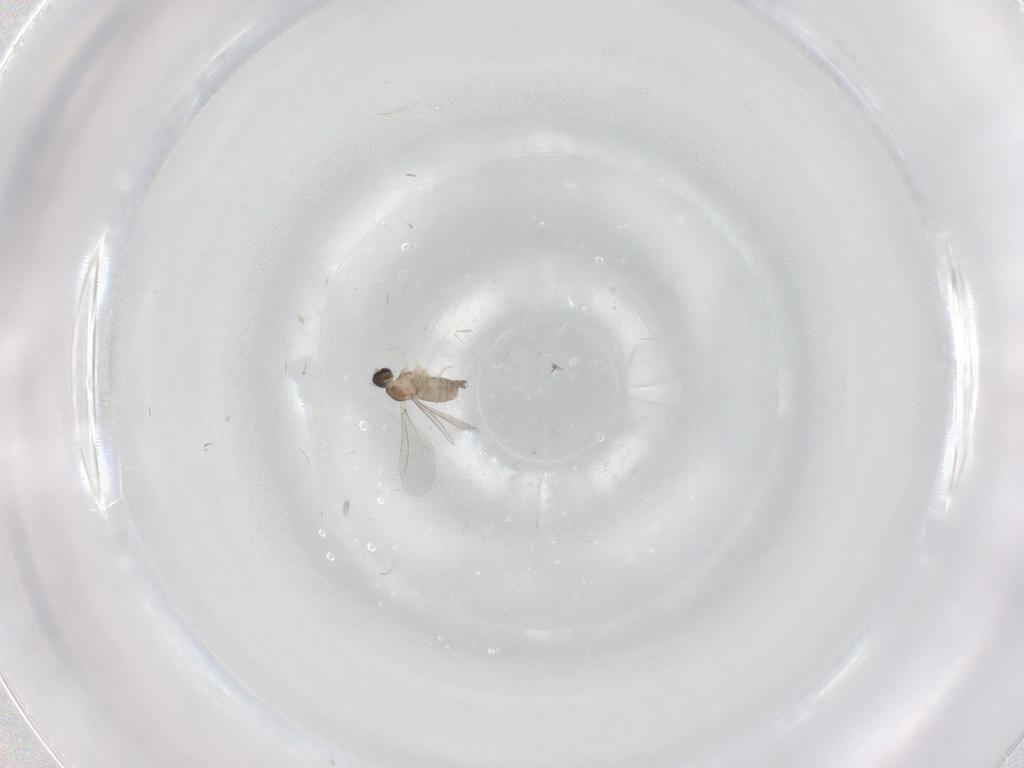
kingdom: Animalia
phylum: Arthropoda
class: Insecta
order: Diptera
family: Cecidomyiidae
